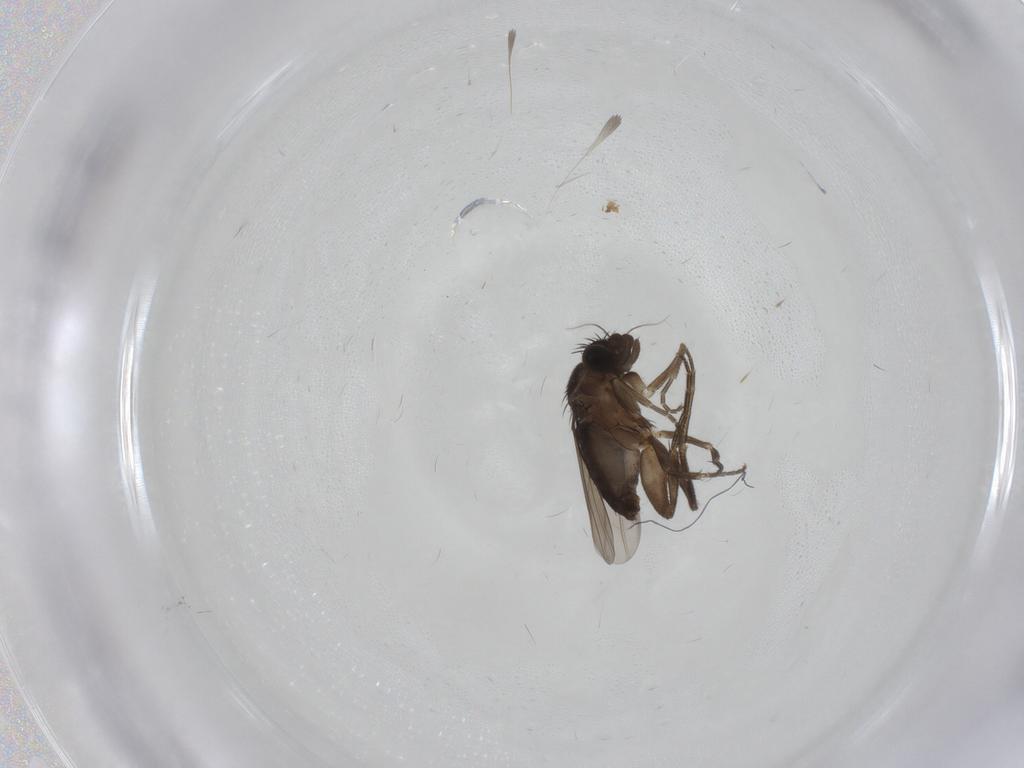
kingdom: Animalia
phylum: Arthropoda
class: Insecta
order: Diptera
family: Phoridae
